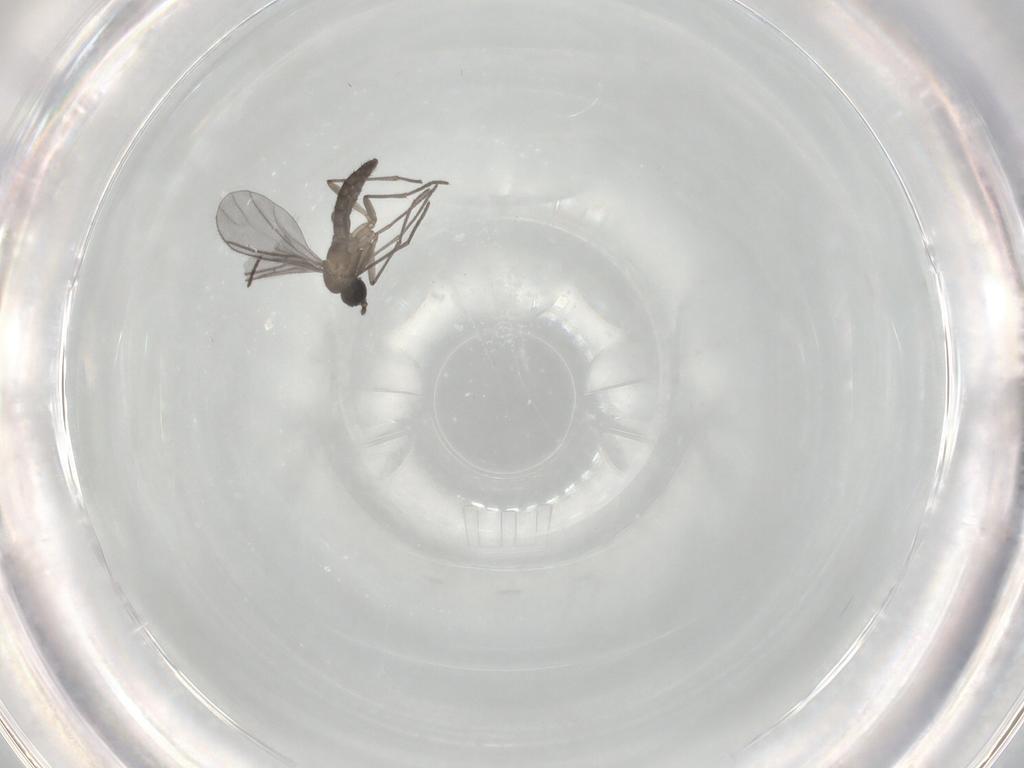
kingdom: Animalia
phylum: Arthropoda
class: Insecta
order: Diptera
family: Sciaridae
